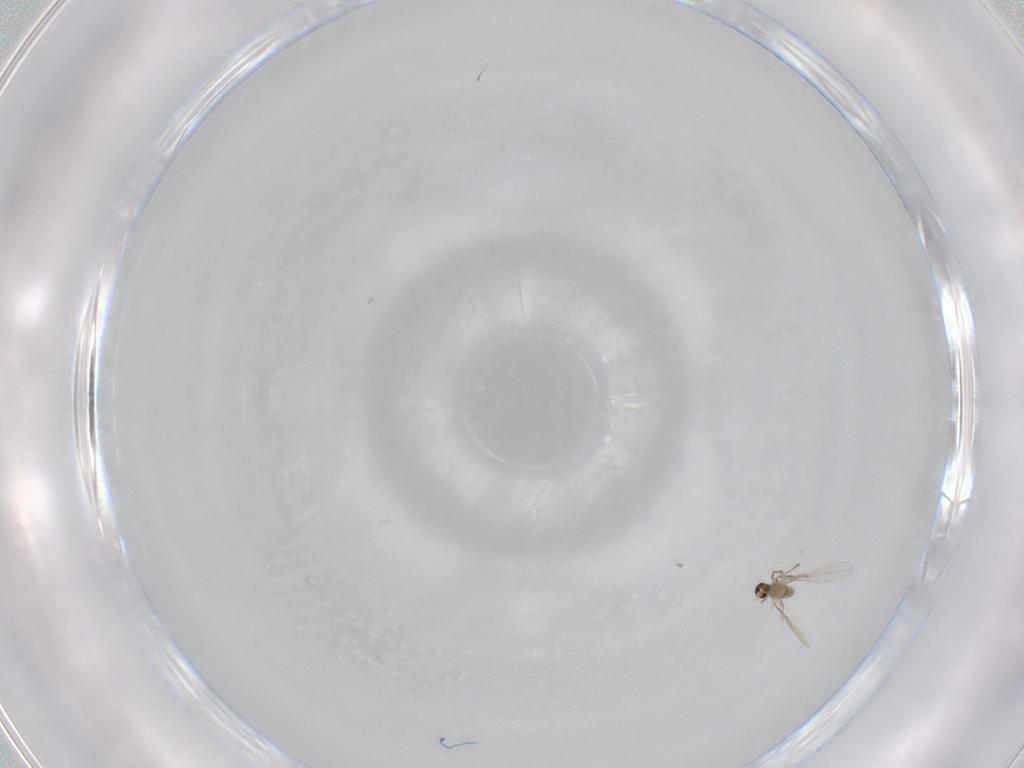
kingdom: Animalia
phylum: Arthropoda
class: Insecta
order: Diptera
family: Cecidomyiidae
